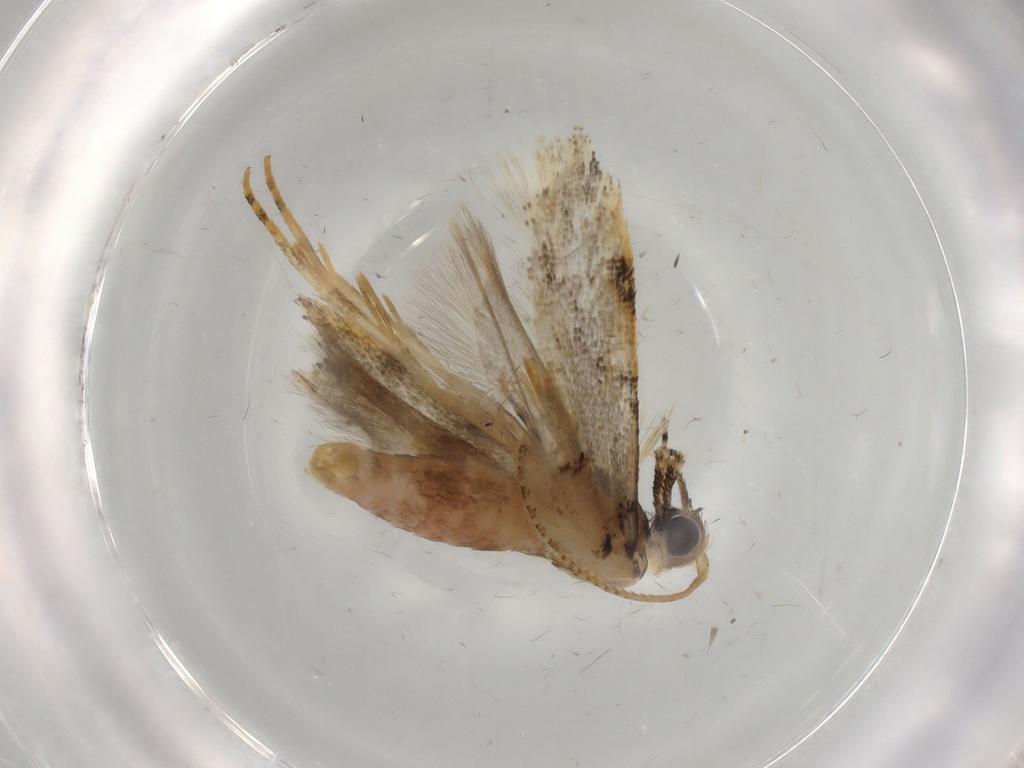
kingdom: Animalia
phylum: Arthropoda
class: Insecta
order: Lepidoptera
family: Gelechiidae
